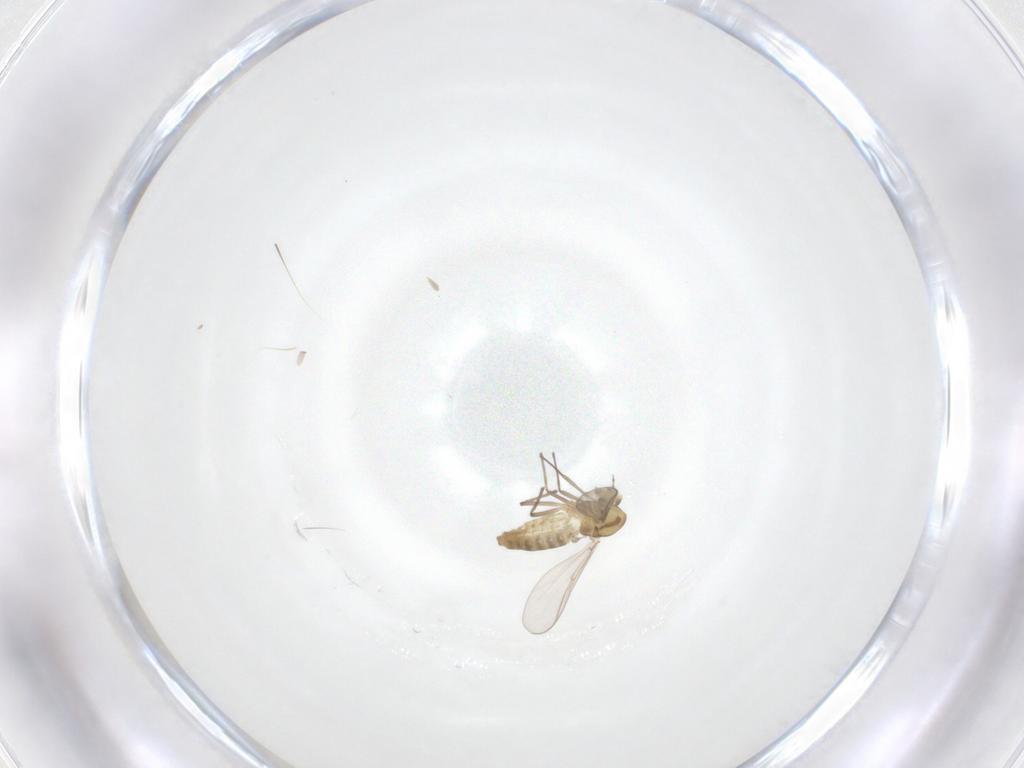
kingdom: Animalia
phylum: Arthropoda
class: Insecta
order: Diptera
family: Chironomidae
